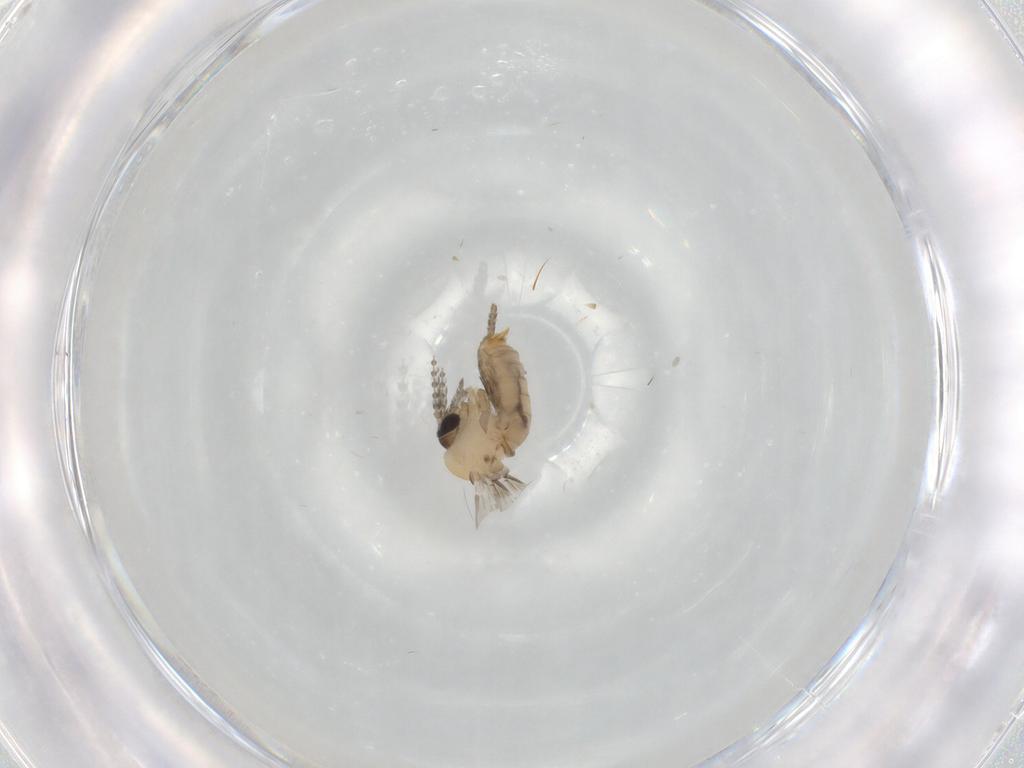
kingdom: Animalia
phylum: Arthropoda
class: Insecta
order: Diptera
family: Psychodidae
